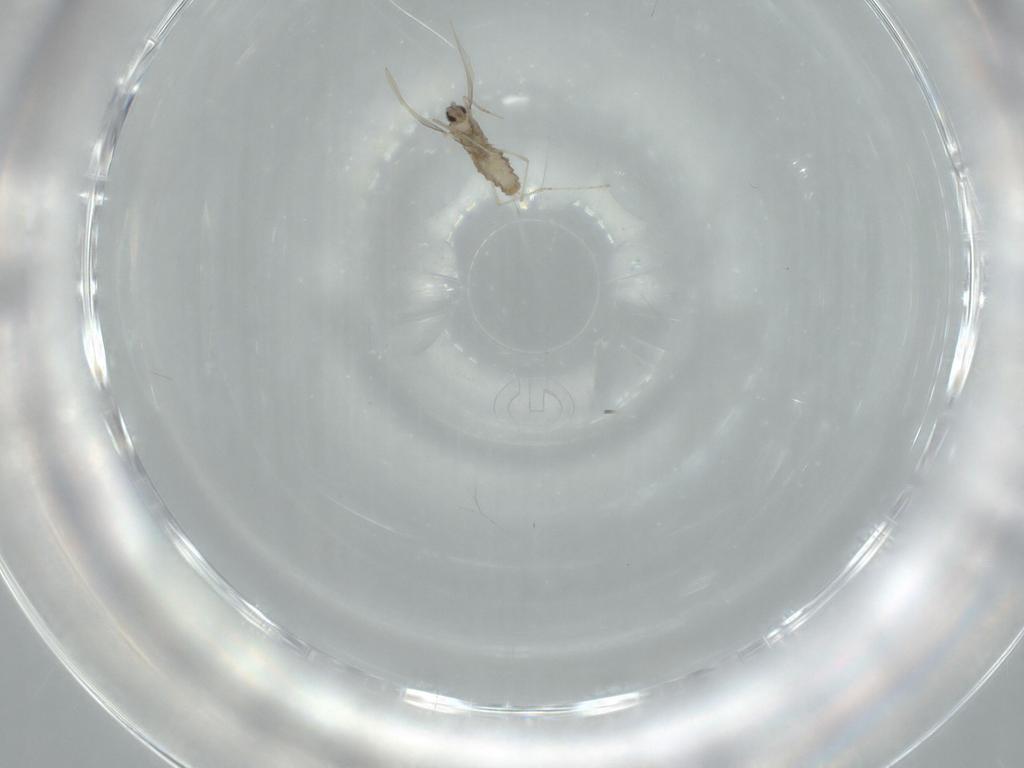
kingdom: Animalia
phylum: Arthropoda
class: Insecta
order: Diptera
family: Cecidomyiidae
